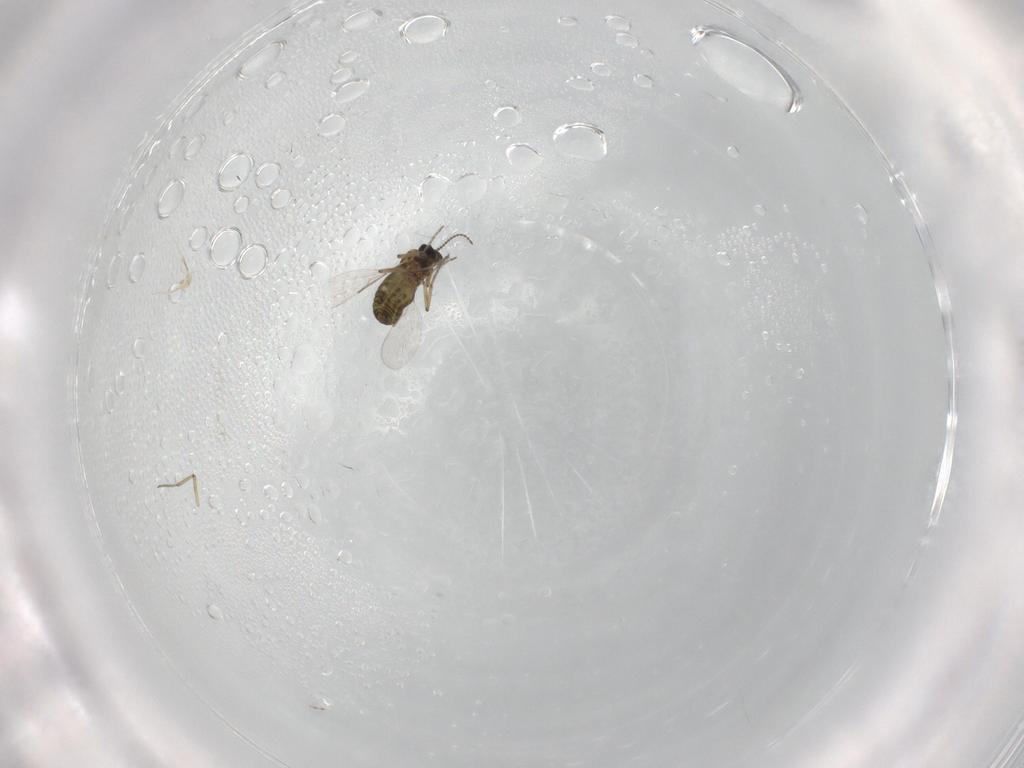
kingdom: Animalia
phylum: Arthropoda
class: Insecta
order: Diptera
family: Ceratopogonidae
